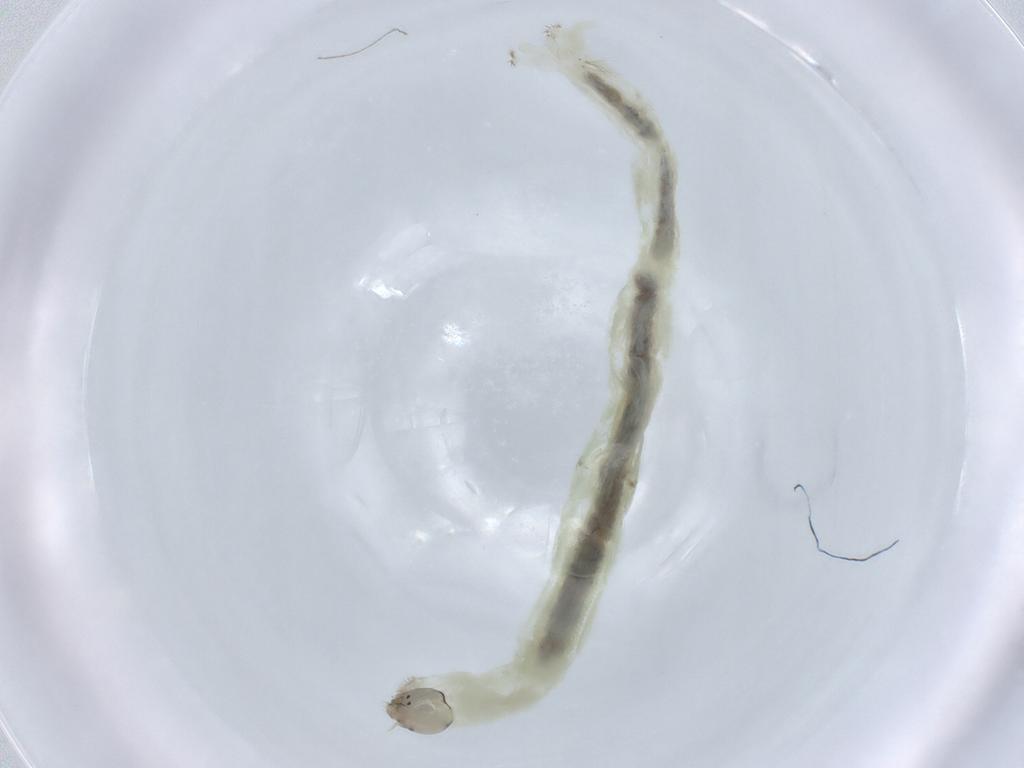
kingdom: Animalia
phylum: Arthropoda
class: Insecta
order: Diptera
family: Chironomidae
